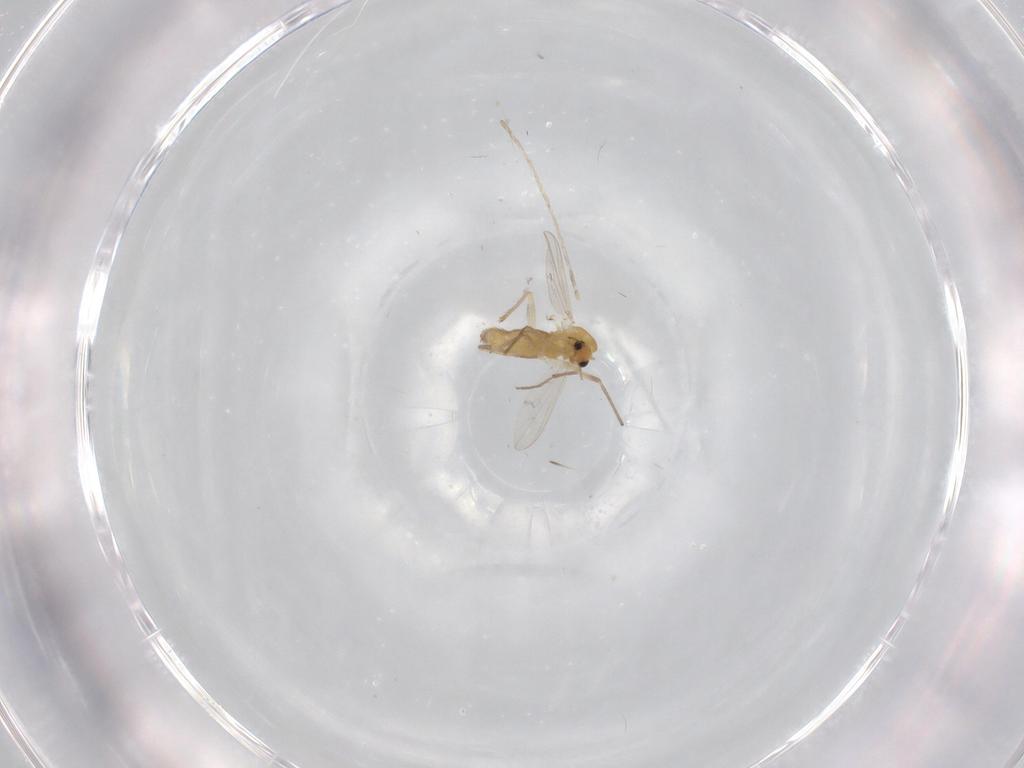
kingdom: Animalia
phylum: Arthropoda
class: Insecta
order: Diptera
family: Chironomidae
